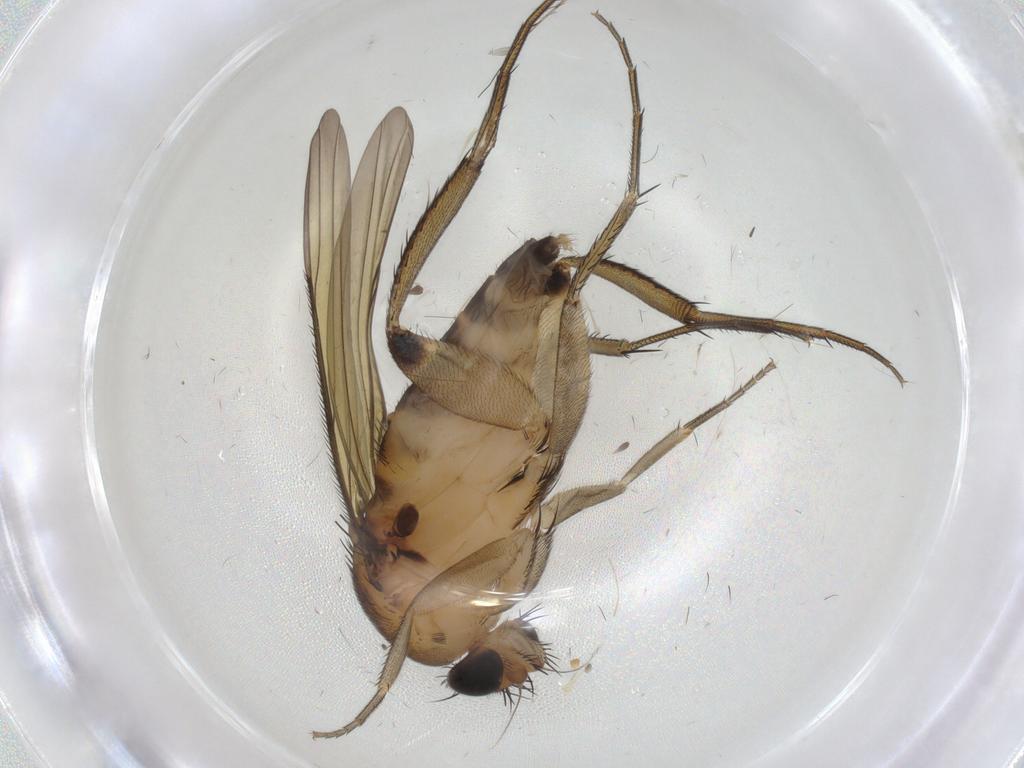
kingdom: Animalia
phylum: Arthropoda
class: Insecta
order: Diptera
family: Phoridae
